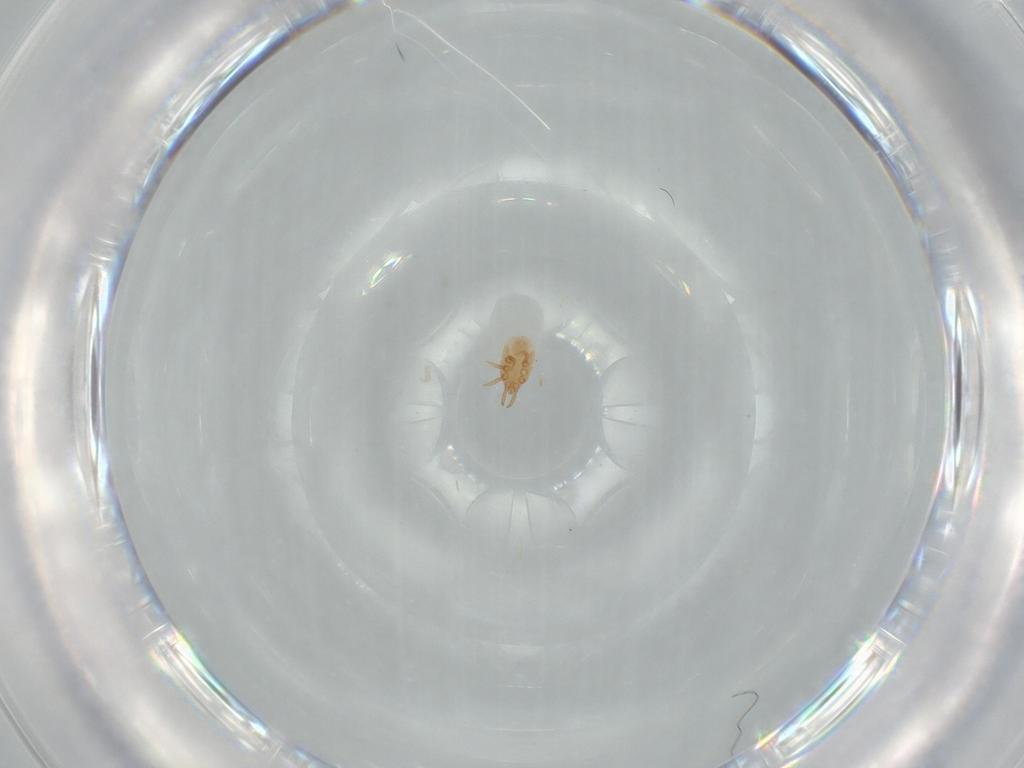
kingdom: Animalia
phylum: Arthropoda
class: Arachnida
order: Mesostigmata
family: Dinychidae
